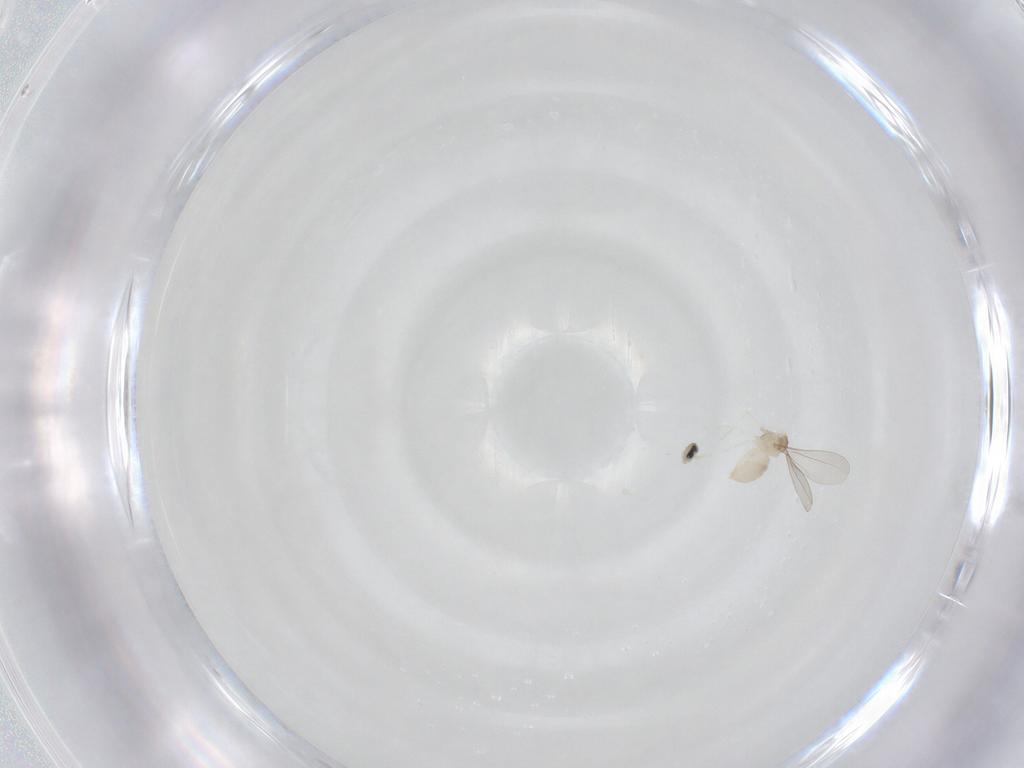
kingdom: Animalia
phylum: Arthropoda
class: Insecta
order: Diptera
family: Cecidomyiidae
